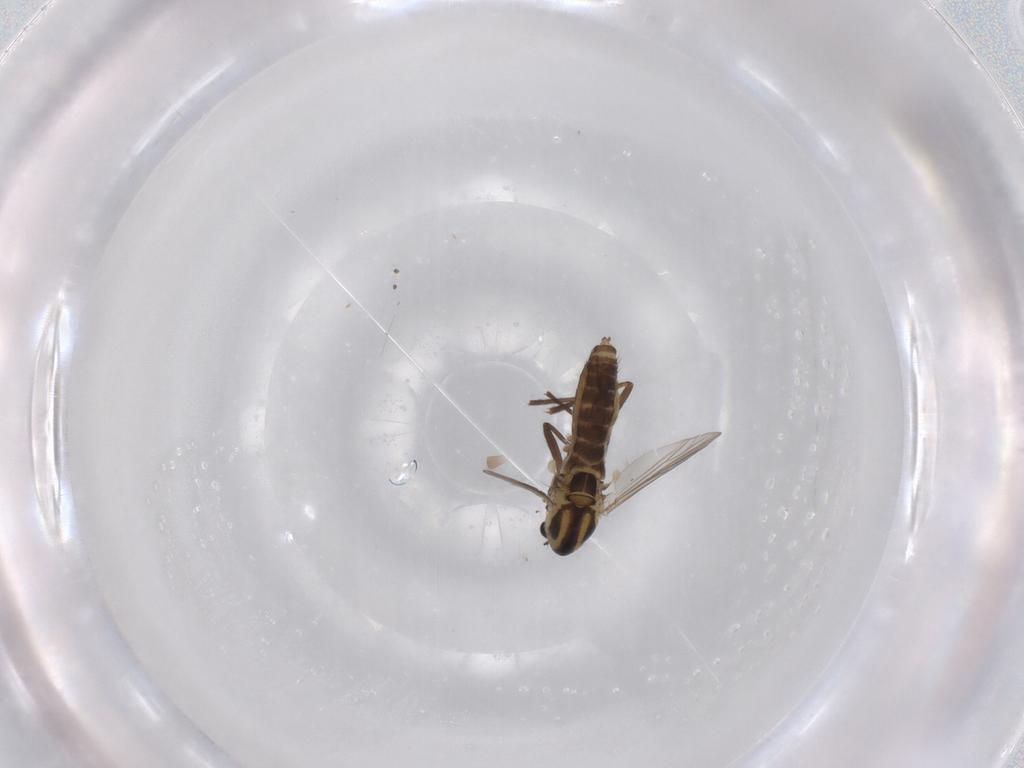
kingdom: Animalia
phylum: Arthropoda
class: Insecta
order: Diptera
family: Chironomidae
